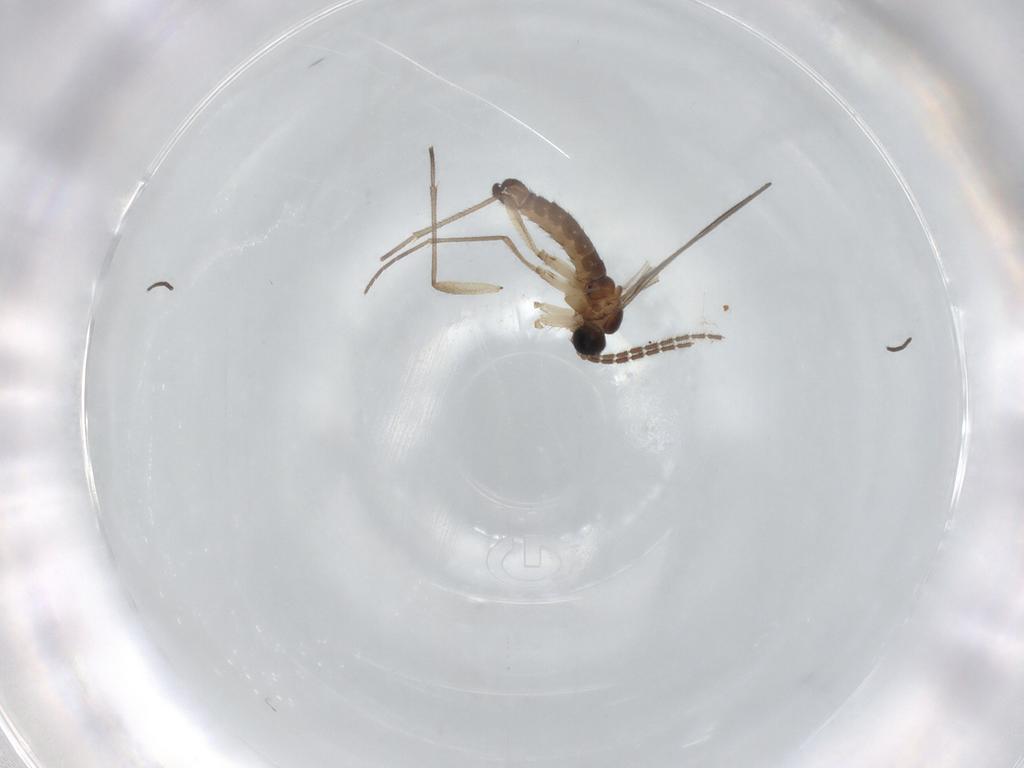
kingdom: Animalia
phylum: Arthropoda
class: Insecta
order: Diptera
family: Sciaridae
